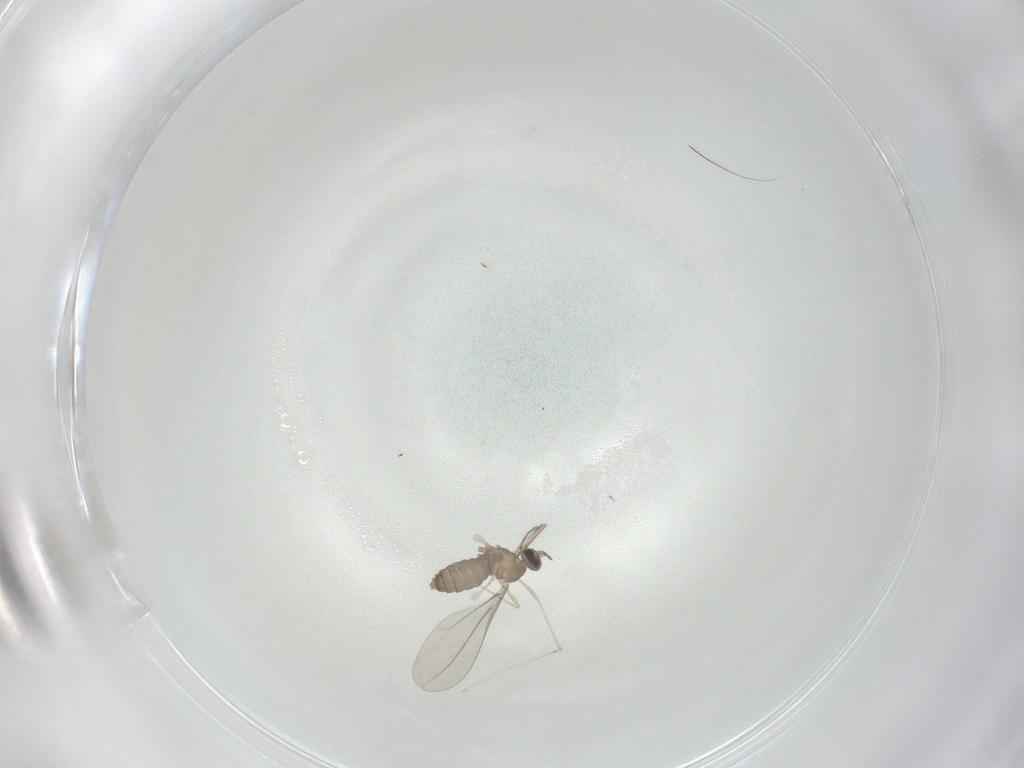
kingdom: Animalia
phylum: Arthropoda
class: Insecta
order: Diptera
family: Cecidomyiidae
